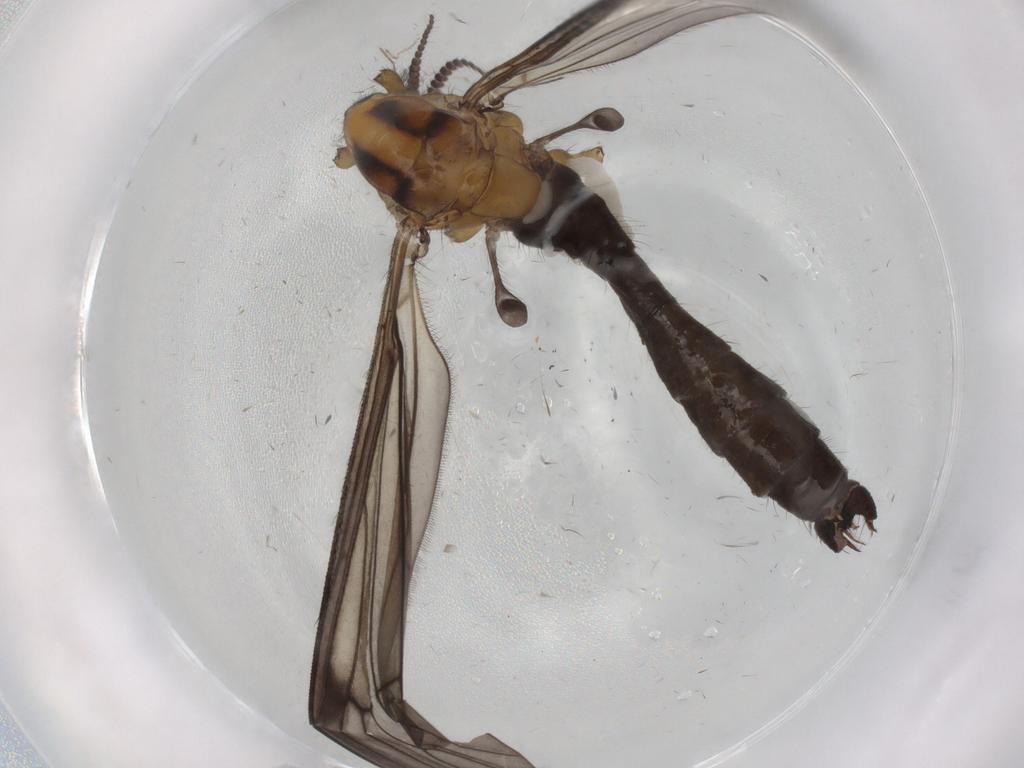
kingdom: Animalia
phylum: Arthropoda
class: Insecta
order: Diptera
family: Limoniidae
